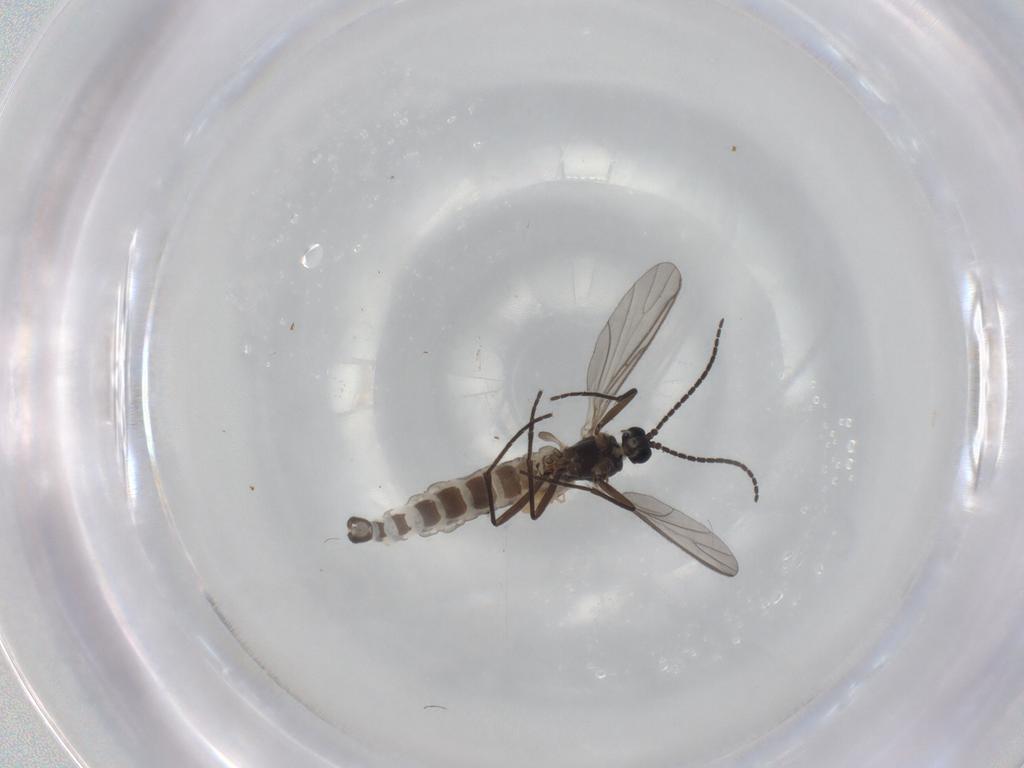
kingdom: Animalia
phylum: Arthropoda
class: Insecta
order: Diptera
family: Sciaridae
